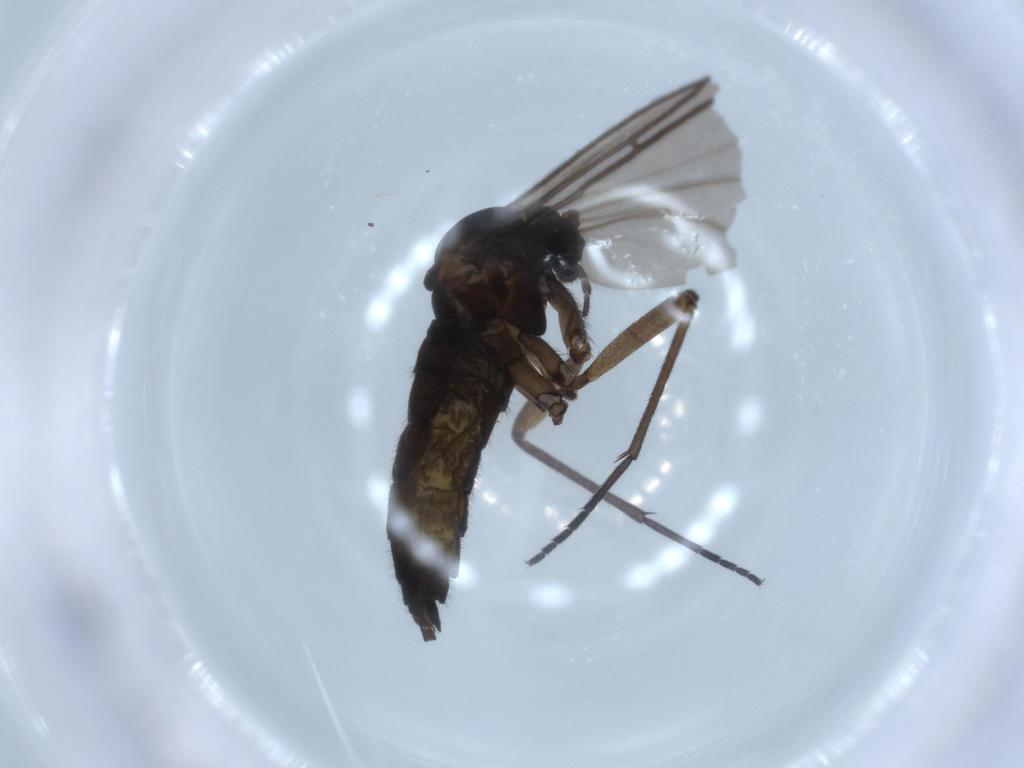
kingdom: Animalia
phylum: Arthropoda
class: Insecta
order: Diptera
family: Sciaridae
